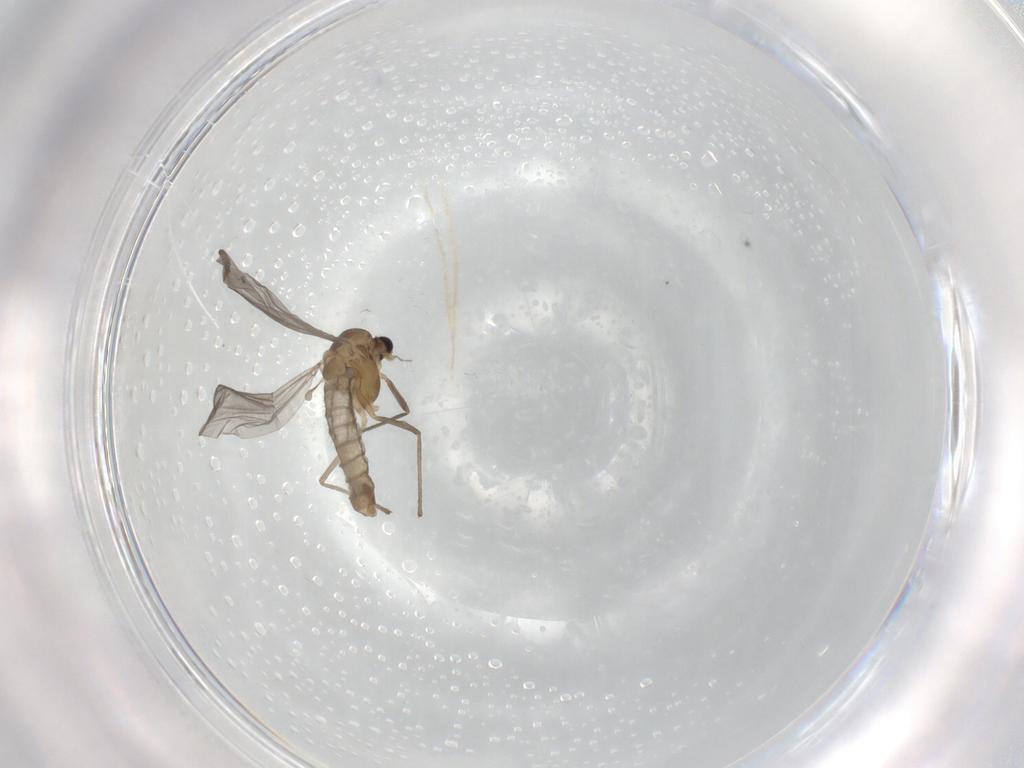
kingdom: Animalia
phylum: Arthropoda
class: Insecta
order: Diptera
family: Chironomidae
